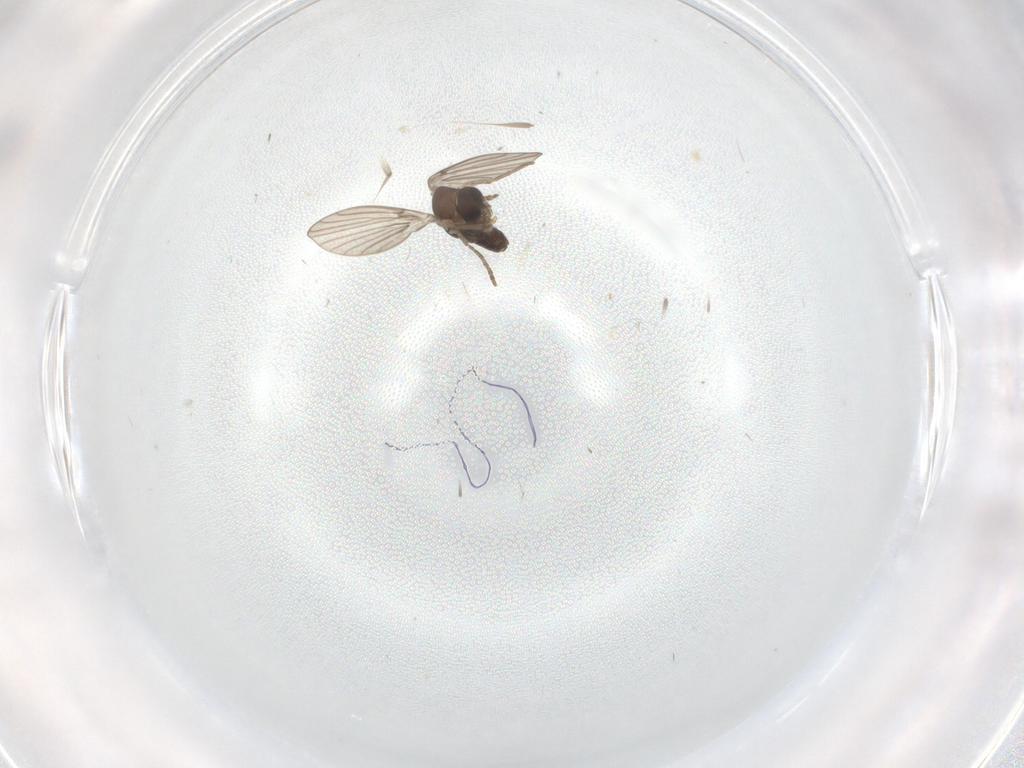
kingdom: Animalia
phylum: Arthropoda
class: Insecta
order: Diptera
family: Psychodidae
